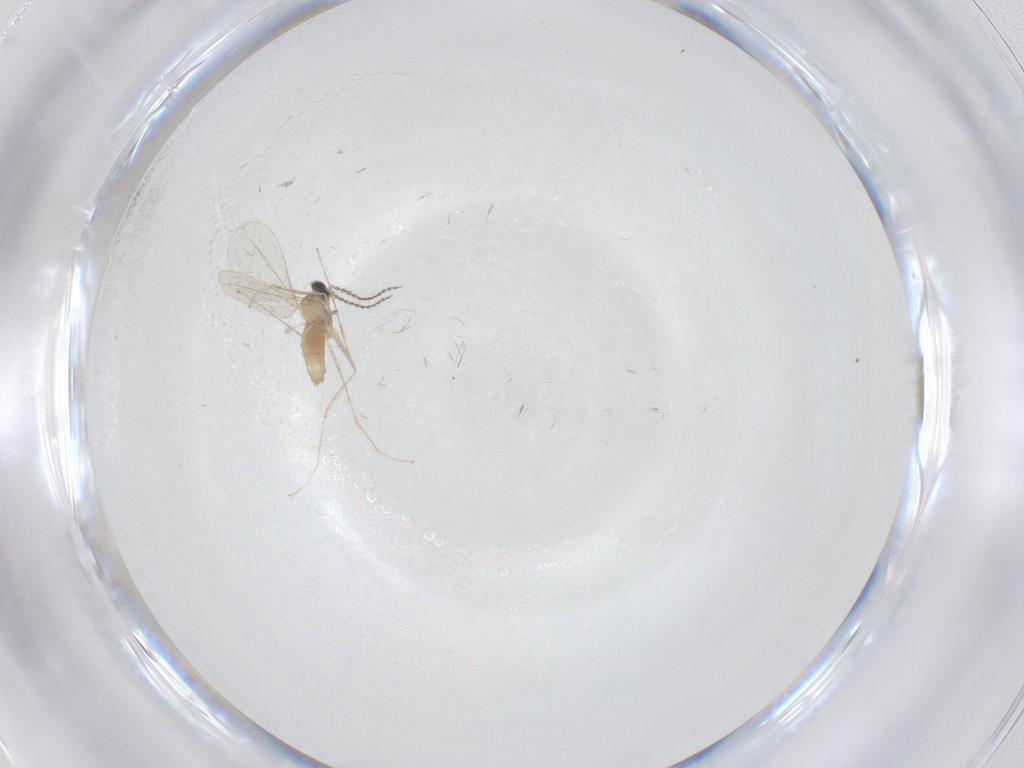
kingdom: Animalia
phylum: Arthropoda
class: Insecta
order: Diptera
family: Cecidomyiidae
